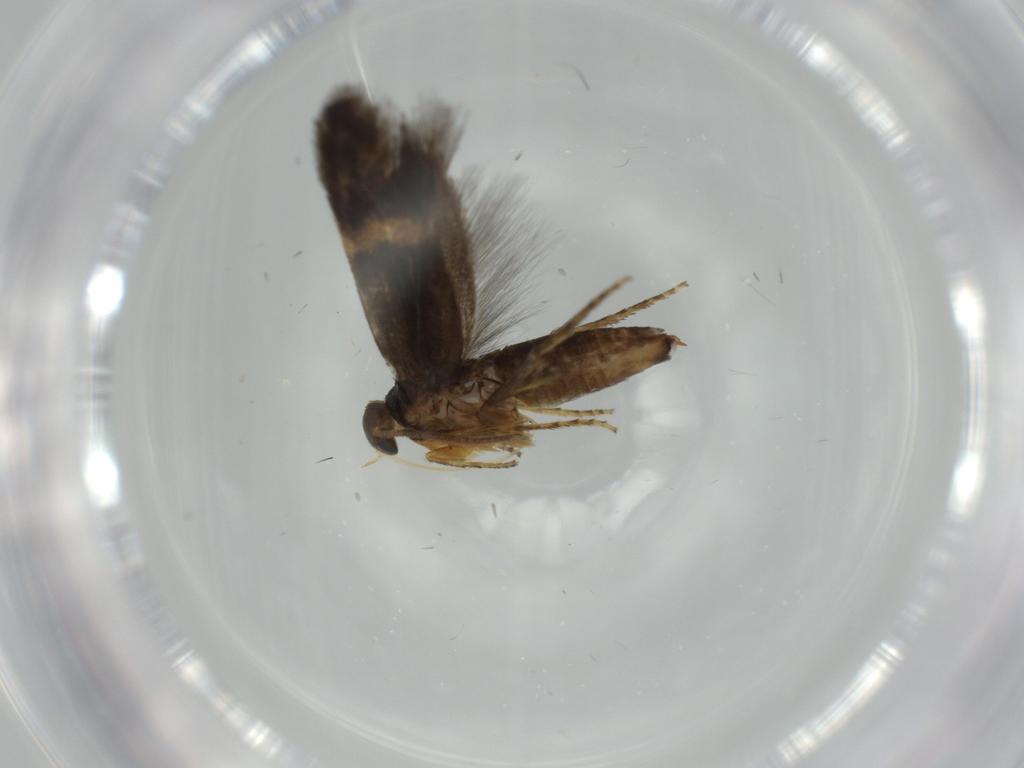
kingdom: Animalia
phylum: Arthropoda
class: Insecta
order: Lepidoptera
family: Heliozelidae
